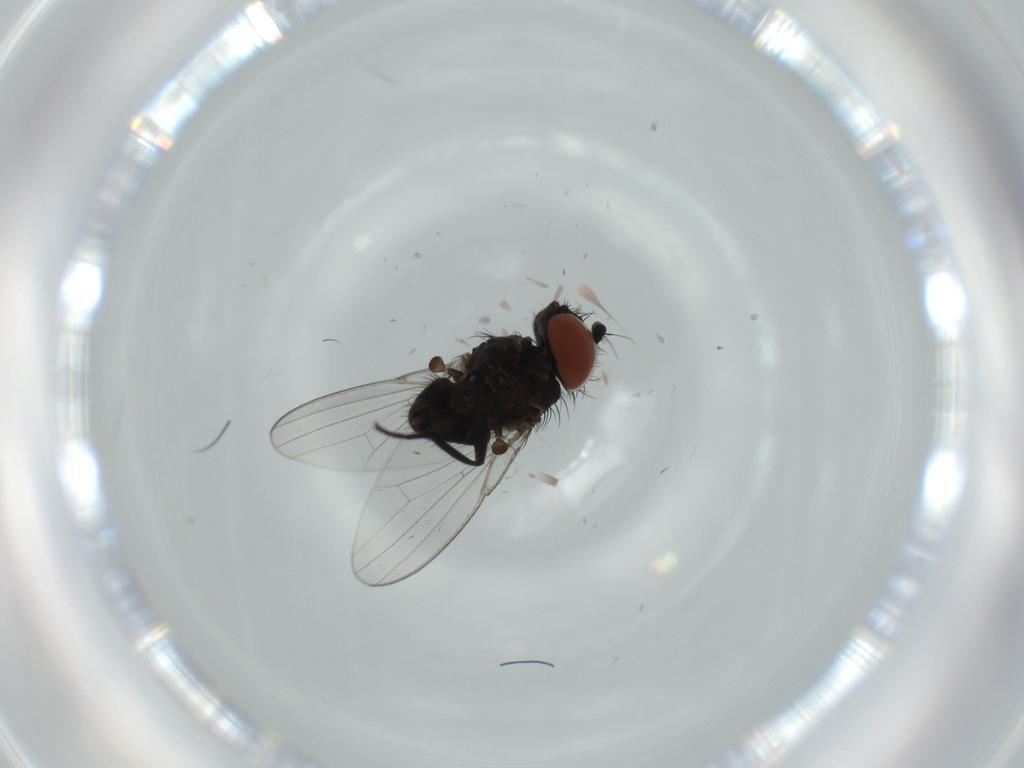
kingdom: Animalia
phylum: Arthropoda
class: Insecta
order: Diptera
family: Milichiidae
